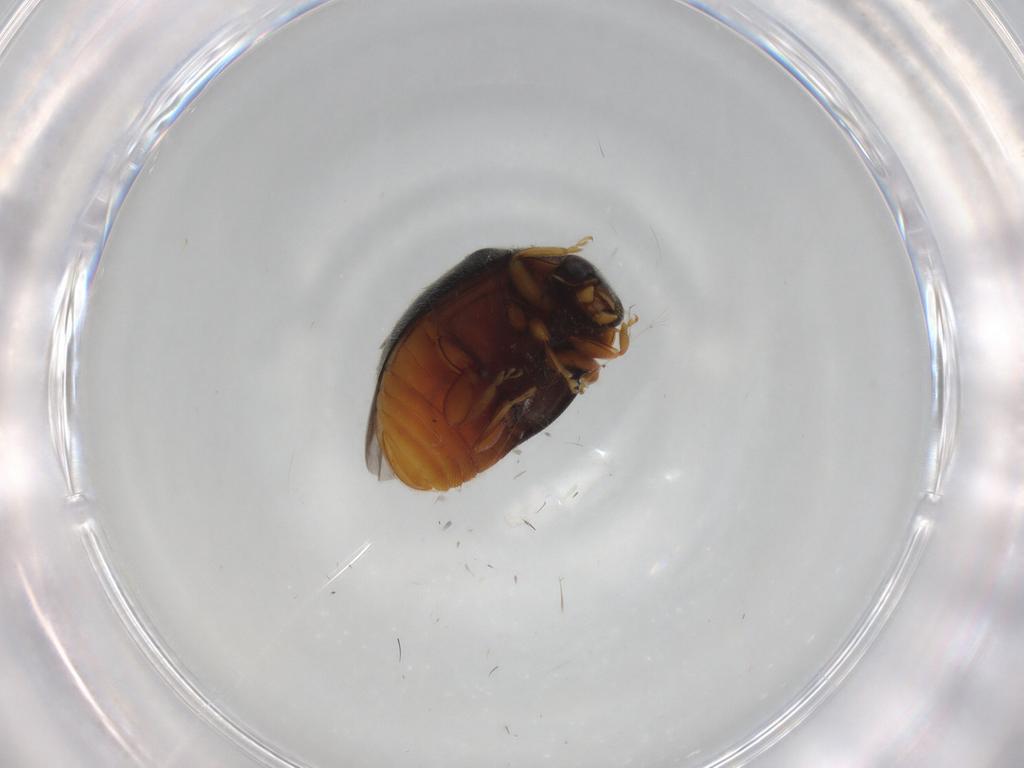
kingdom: Animalia
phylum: Arthropoda
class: Insecta
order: Coleoptera
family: Coccinellidae
